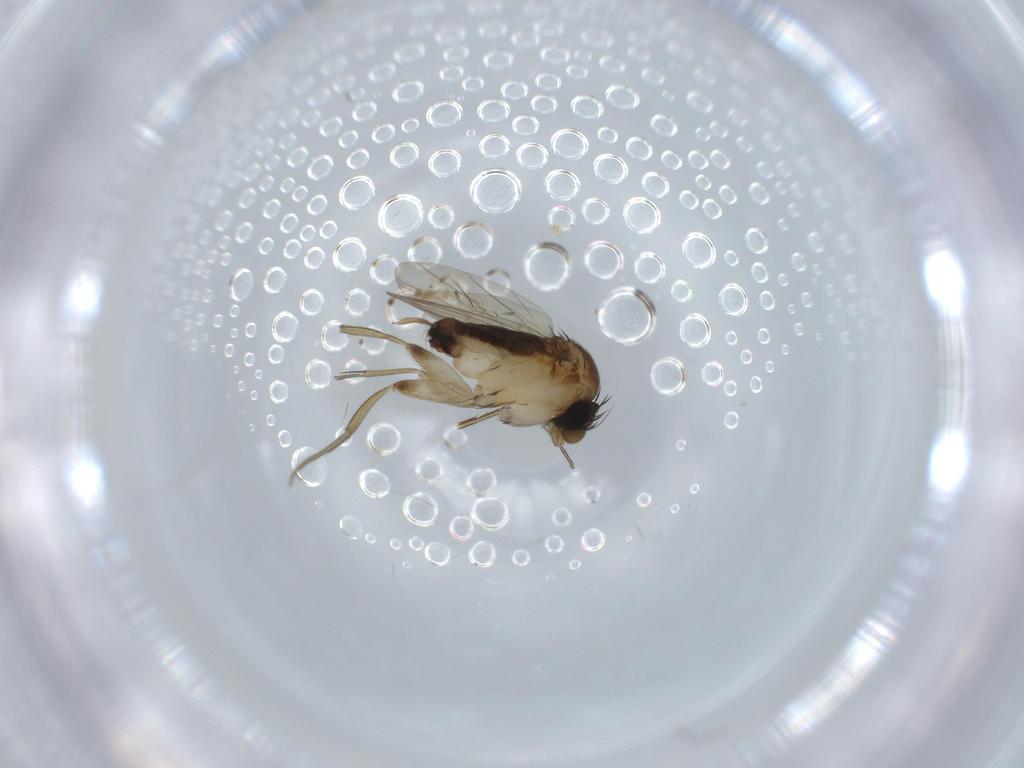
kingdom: Animalia
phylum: Arthropoda
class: Insecta
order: Diptera
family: Phoridae
